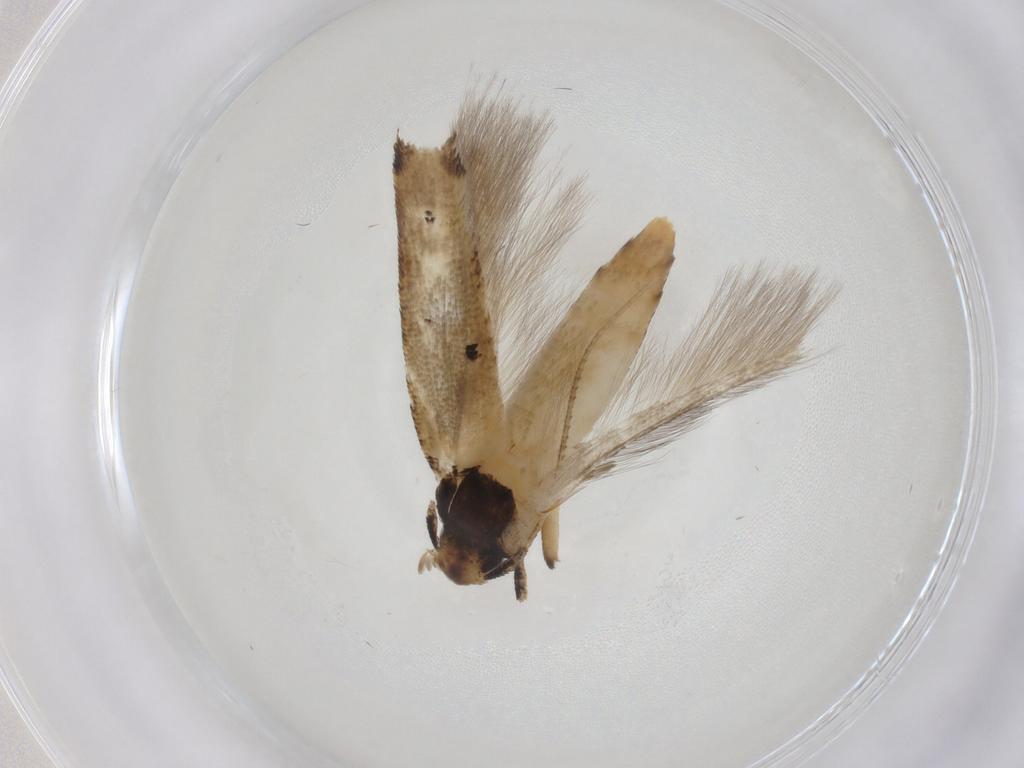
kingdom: Animalia
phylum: Arthropoda
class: Insecta
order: Lepidoptera
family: Cosmopterigidae
